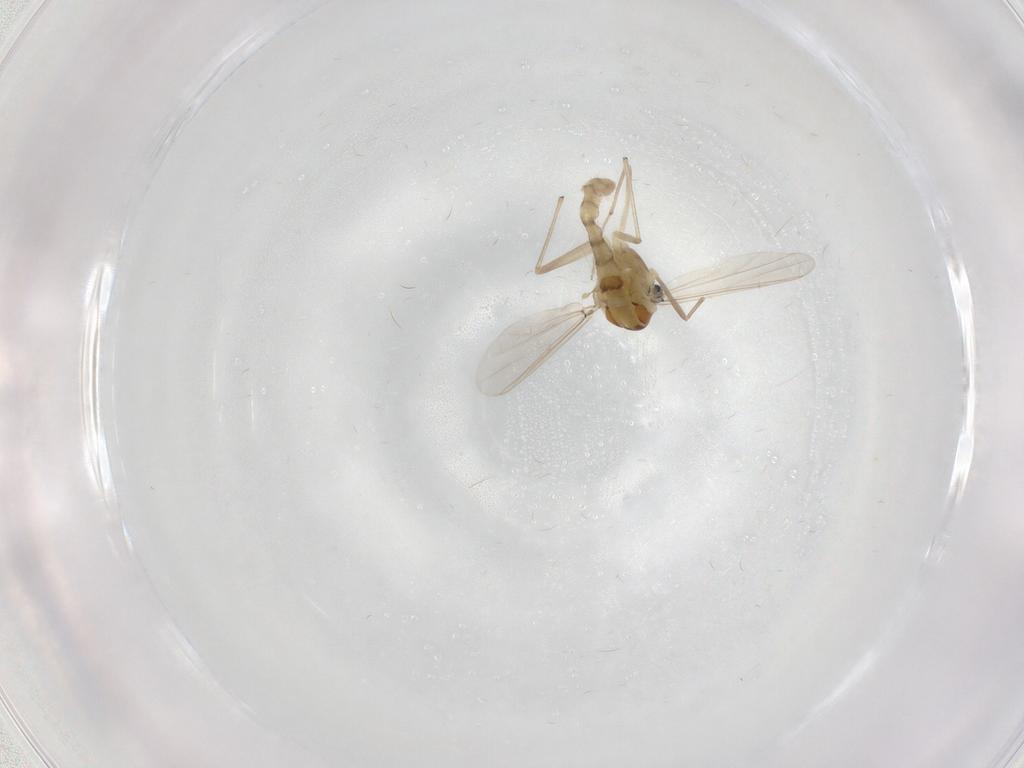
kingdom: Animalia
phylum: Arthropoda
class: Insecta
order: Diptera
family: Chironomidae
